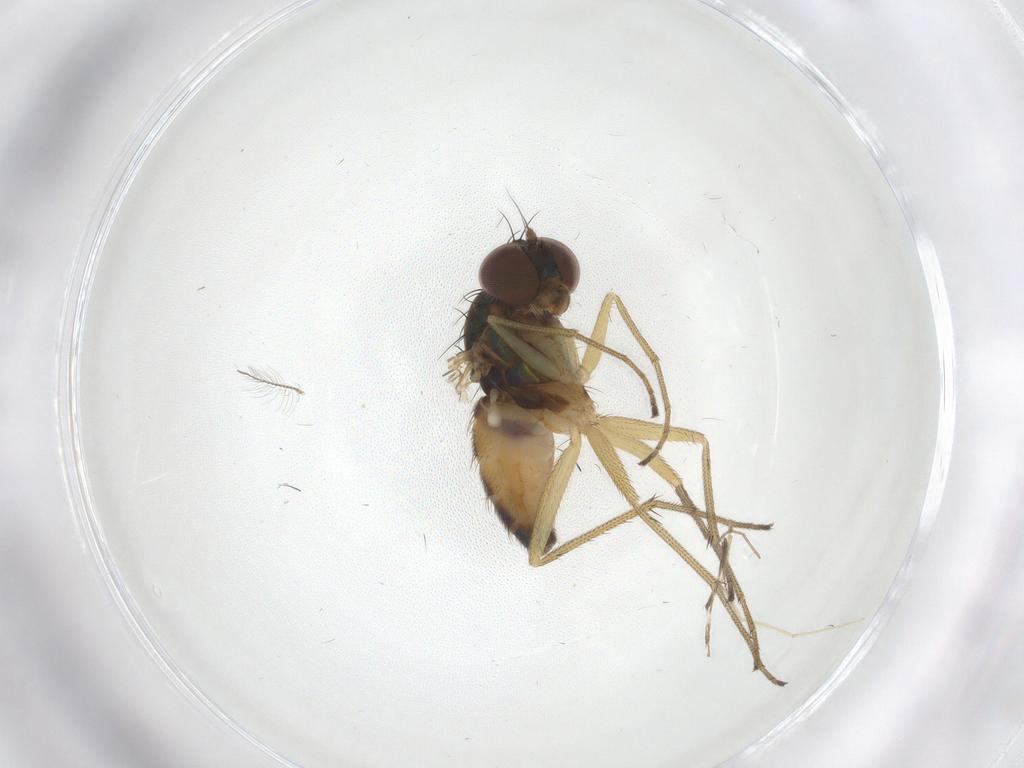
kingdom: Animalia
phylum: Arthropoda
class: Insecta
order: Diptera
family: Dolichopodidae
